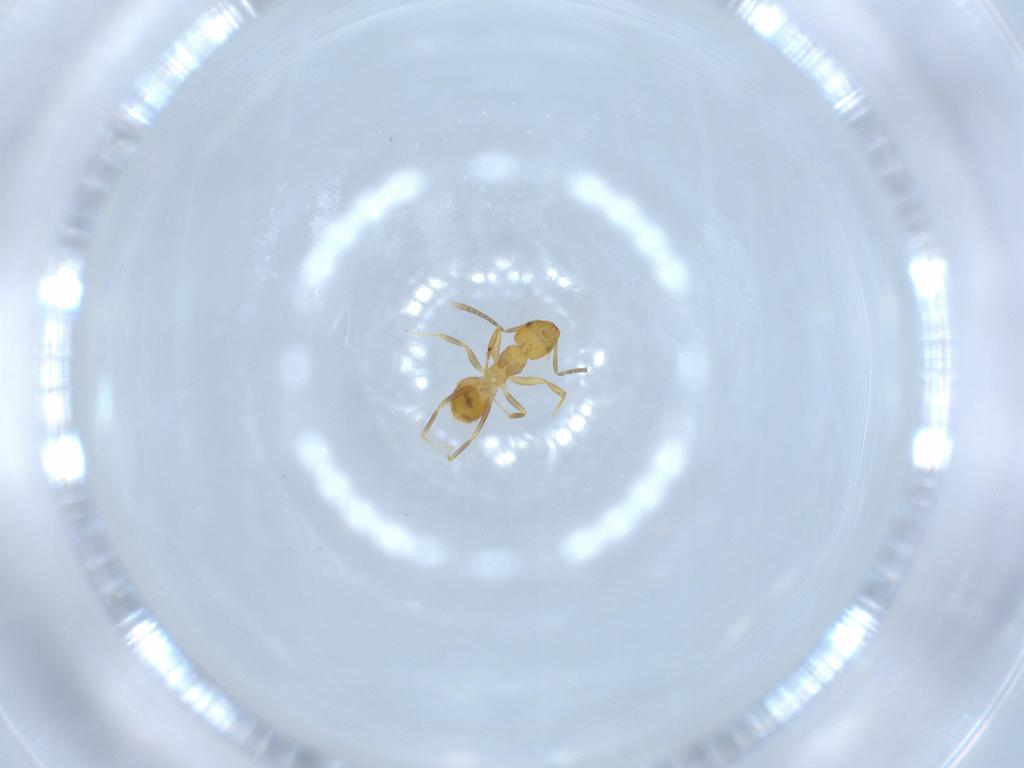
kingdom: Animalia
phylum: Arthropoda
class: Insecta
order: Hymenoptera
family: Formicidae
